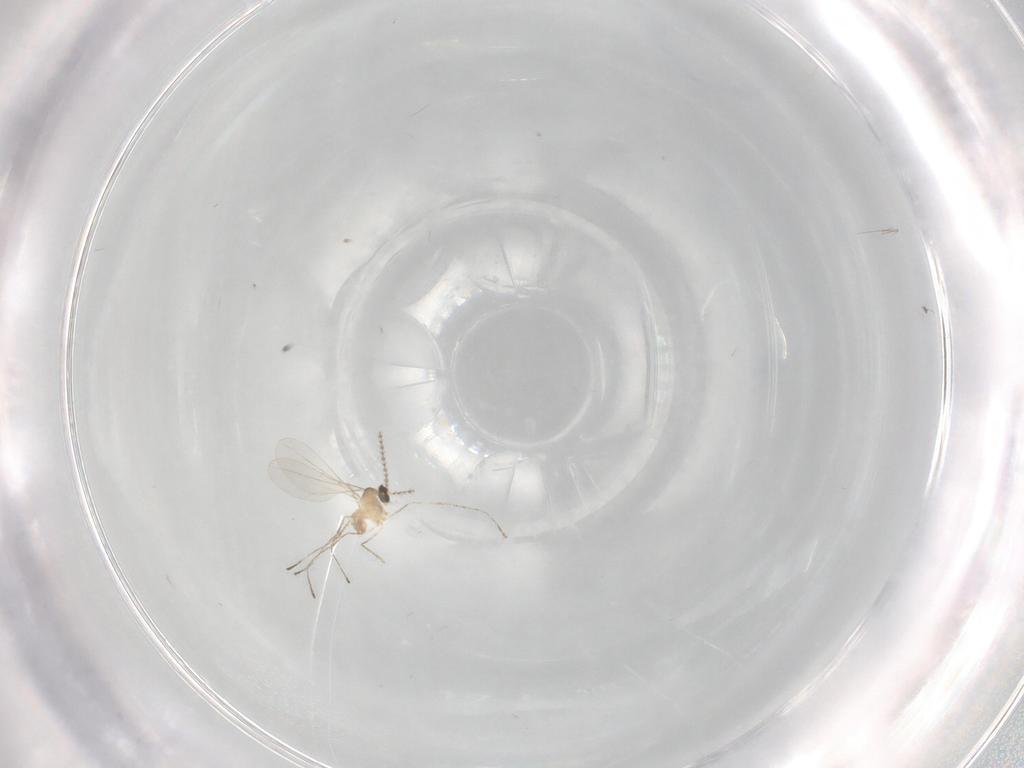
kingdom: Animalia
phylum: Arthropoda
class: Insecta
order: Diptera
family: Cecidomyiidae
